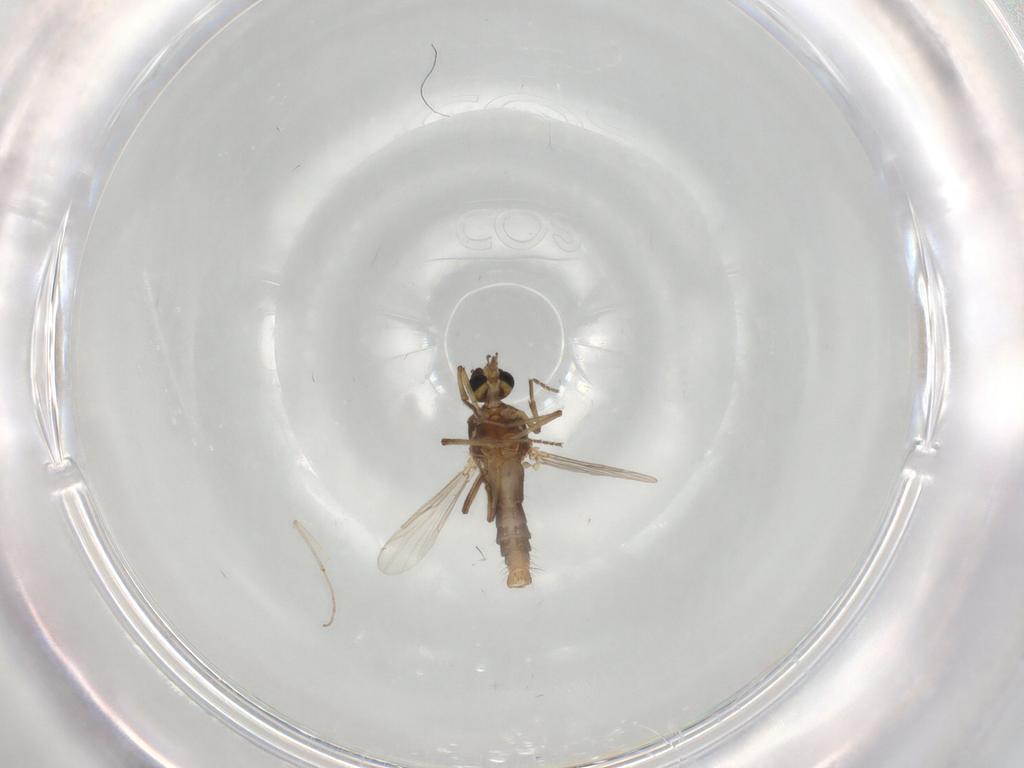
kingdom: Animalia
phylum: Arthropoda
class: Insecta
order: Diptera
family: Ceratopogonidae
